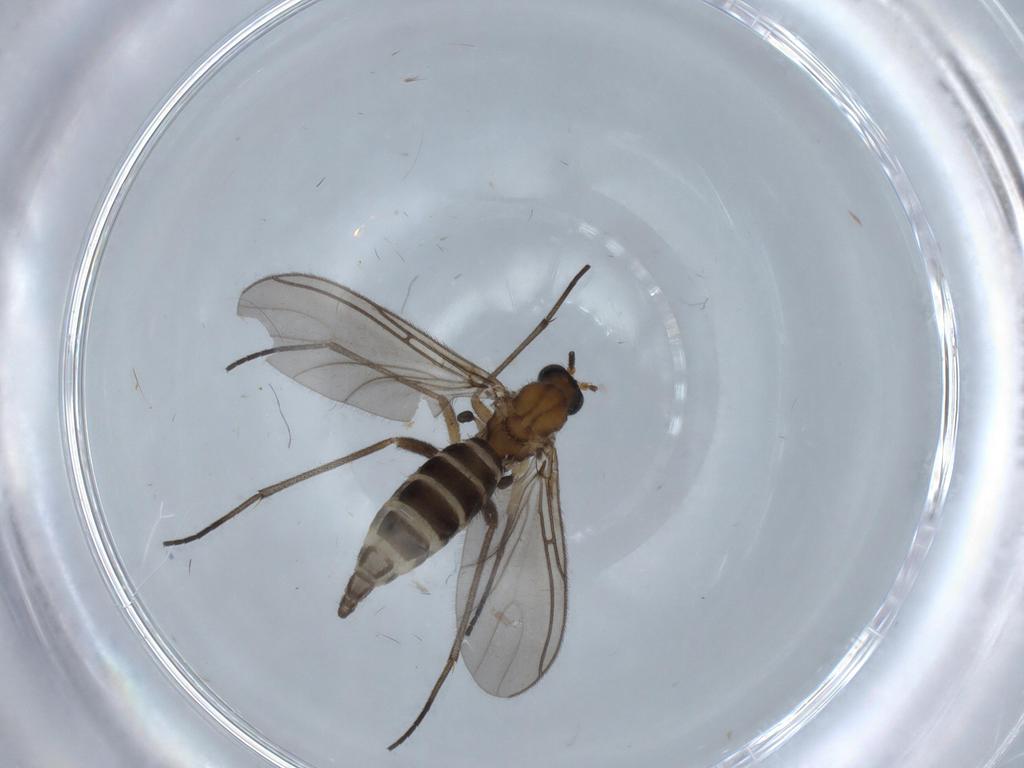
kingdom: Animalia
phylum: Arthropoda
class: Insecta
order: Diptera
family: Sciaridae
